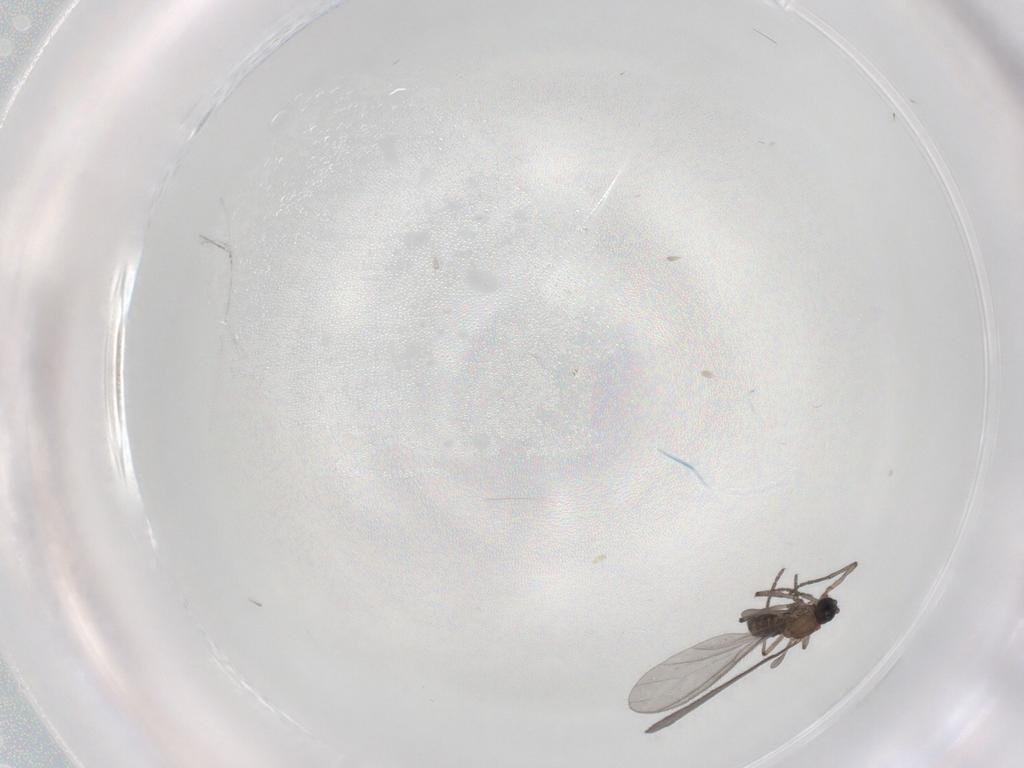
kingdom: Animalia
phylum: Arthropoda
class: Insecta
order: Diptera
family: Sciaridae
